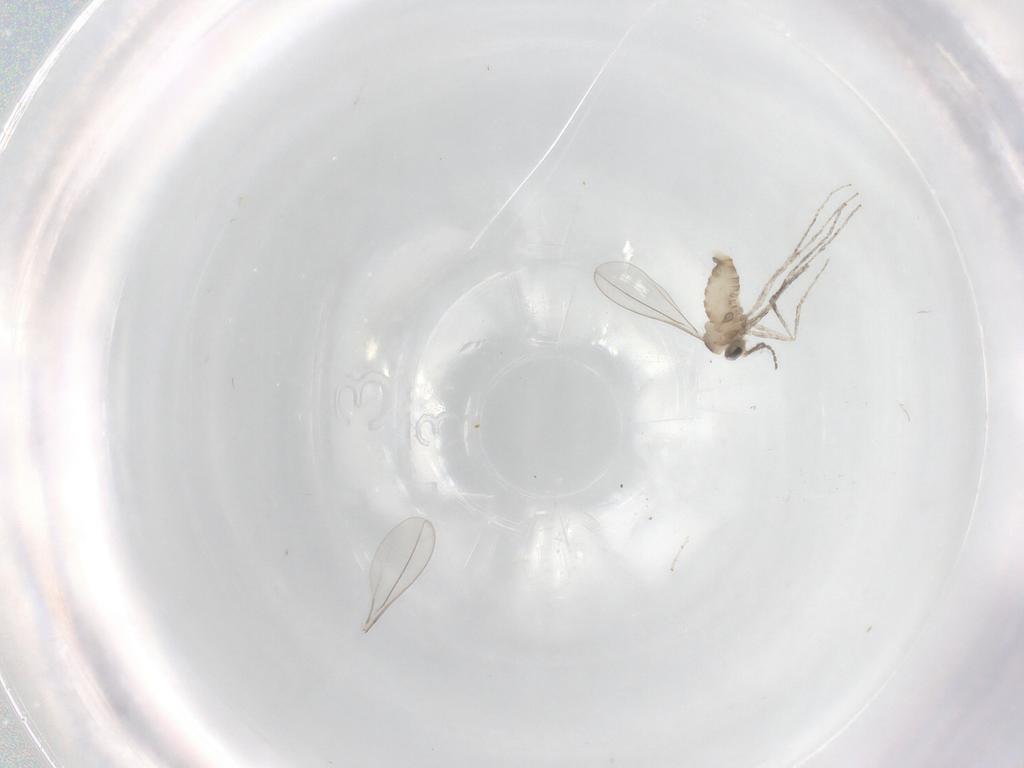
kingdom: Animalia
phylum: Arthropoda
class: Insecta
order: Diptera
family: Cecidomyiidae
